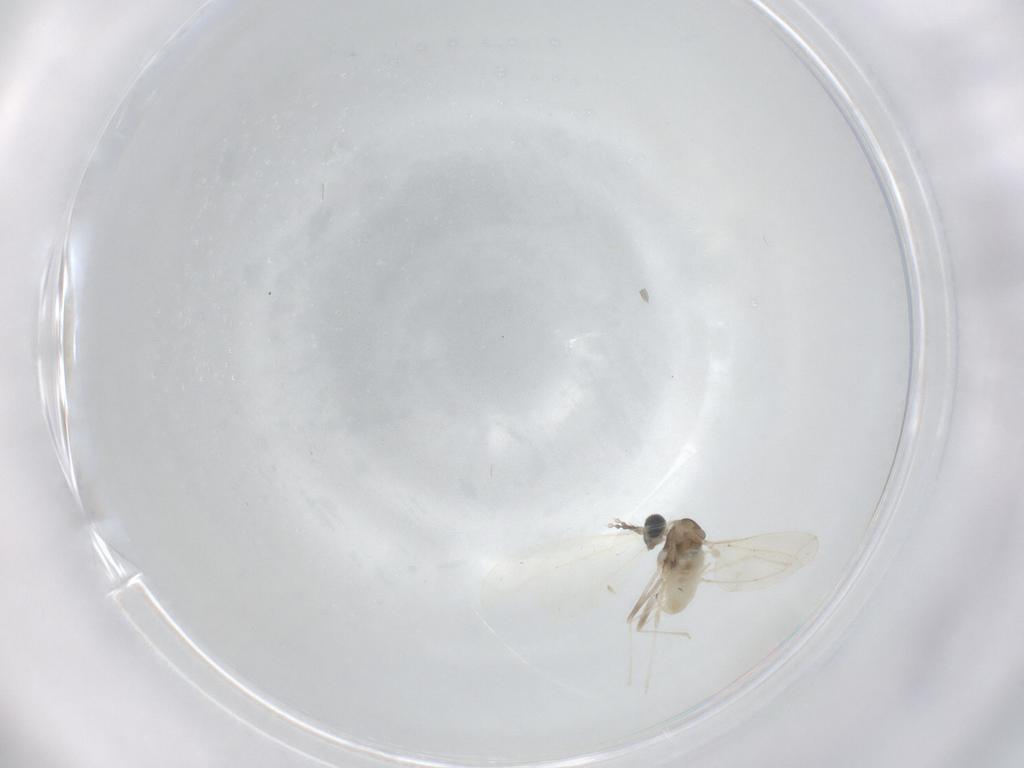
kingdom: Animalia
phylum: Arthropoda
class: Insecta
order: Diptera
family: Cecidomyiidae
